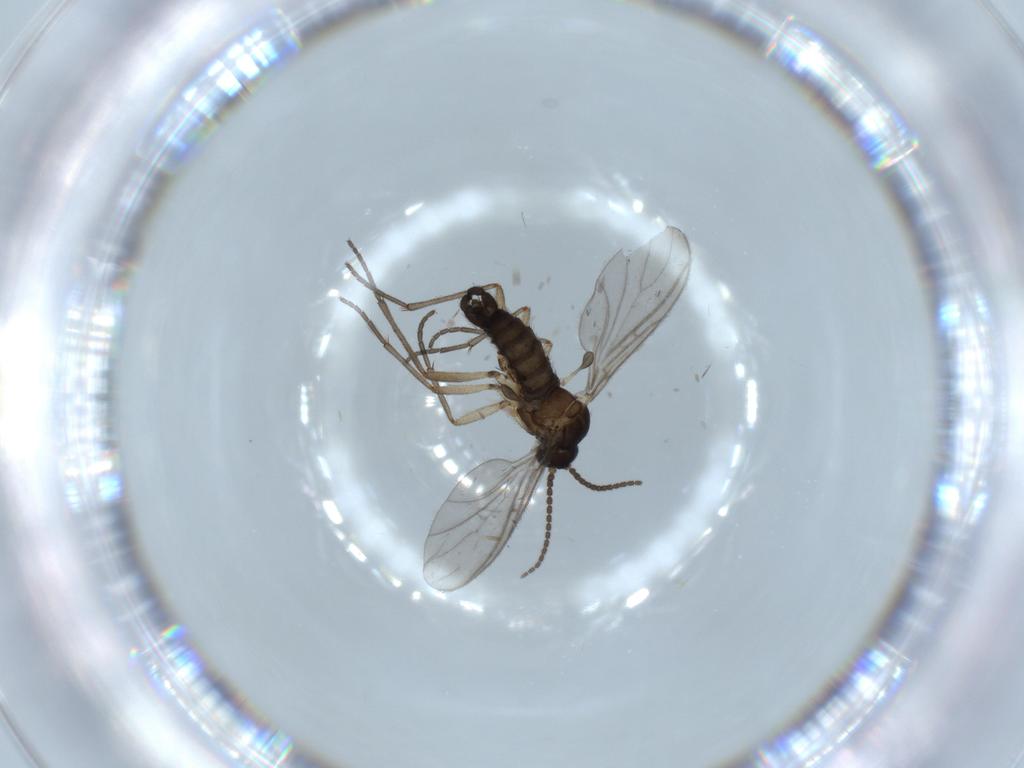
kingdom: Animalia
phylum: Arthropoda
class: Insecta
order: Diptera
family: Sciaridae
